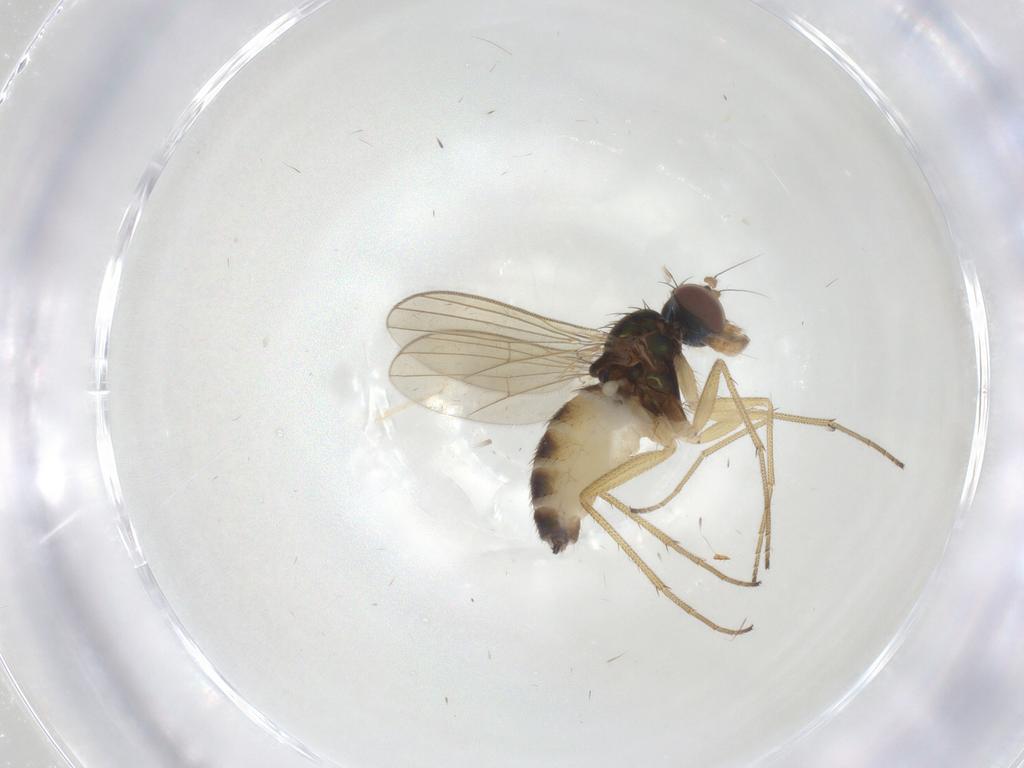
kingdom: Animalia
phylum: Arthropoda
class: Insecta
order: Diptera
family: Dolichopodidae
